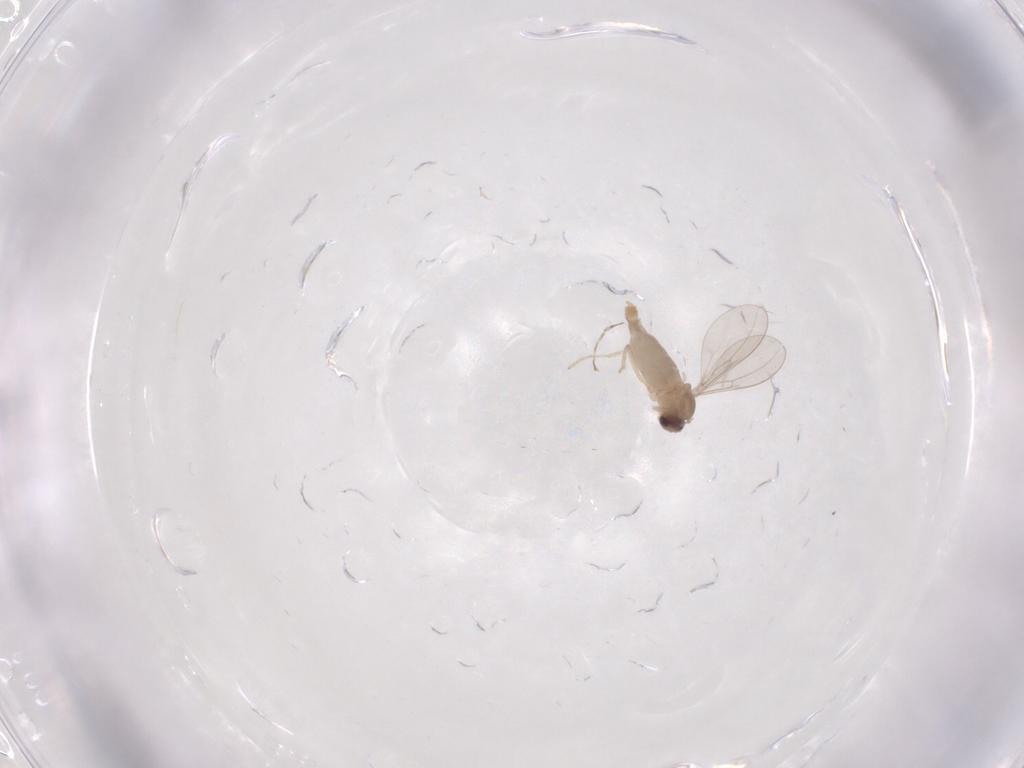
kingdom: Animalia
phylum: Arthropoda
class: Insecta
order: Diptera
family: Cecidomyiidae
